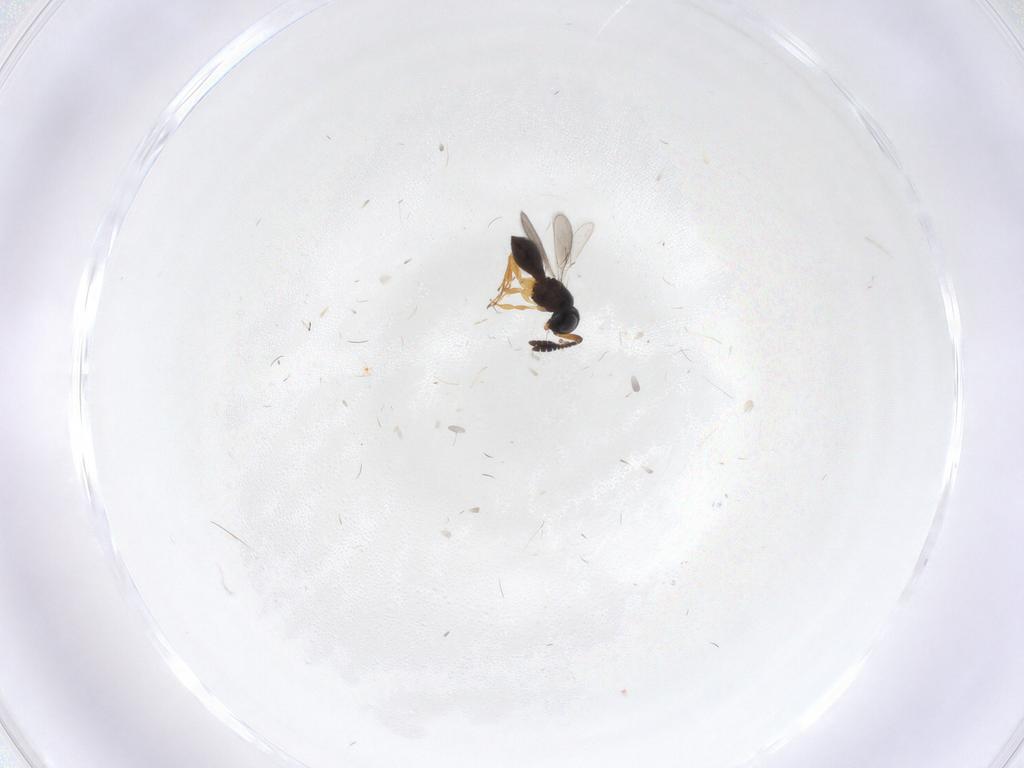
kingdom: Animalia
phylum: Arthropoda
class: Insecta
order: Hymenoptera
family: Scelionidae
